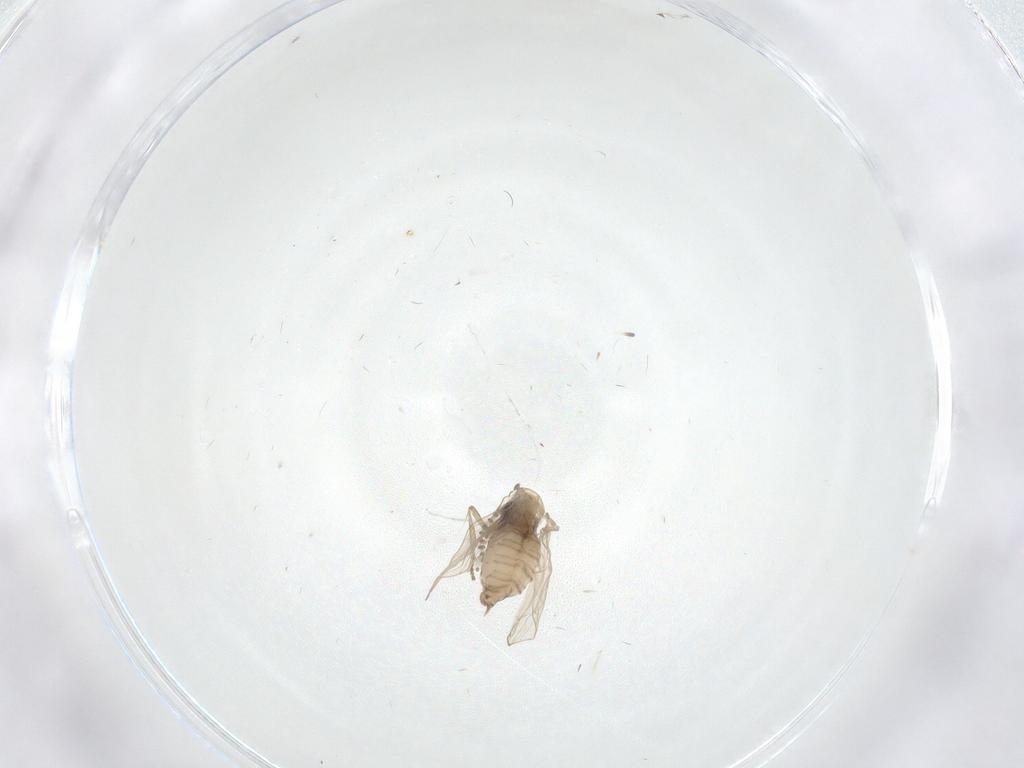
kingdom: Animalia
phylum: Arthropoda
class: Insecta
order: Diptera
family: Psychodidae
